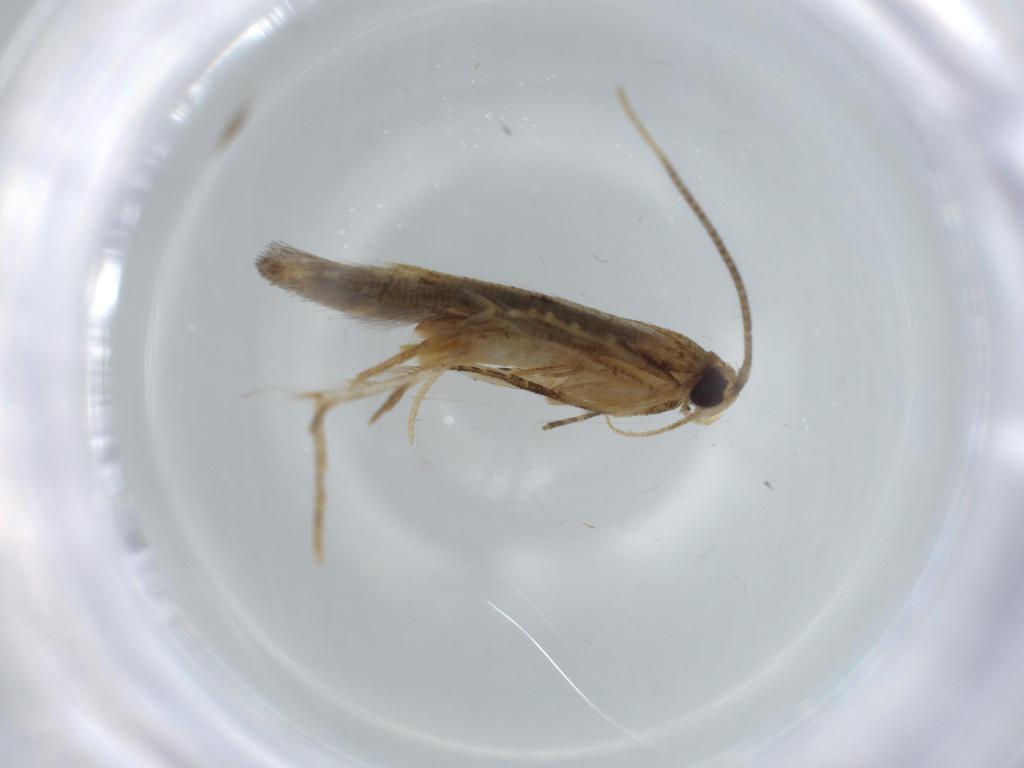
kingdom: Animalia
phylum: Arthropoda
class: Insecta
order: Lepidoptera
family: Cosmopterigidae
